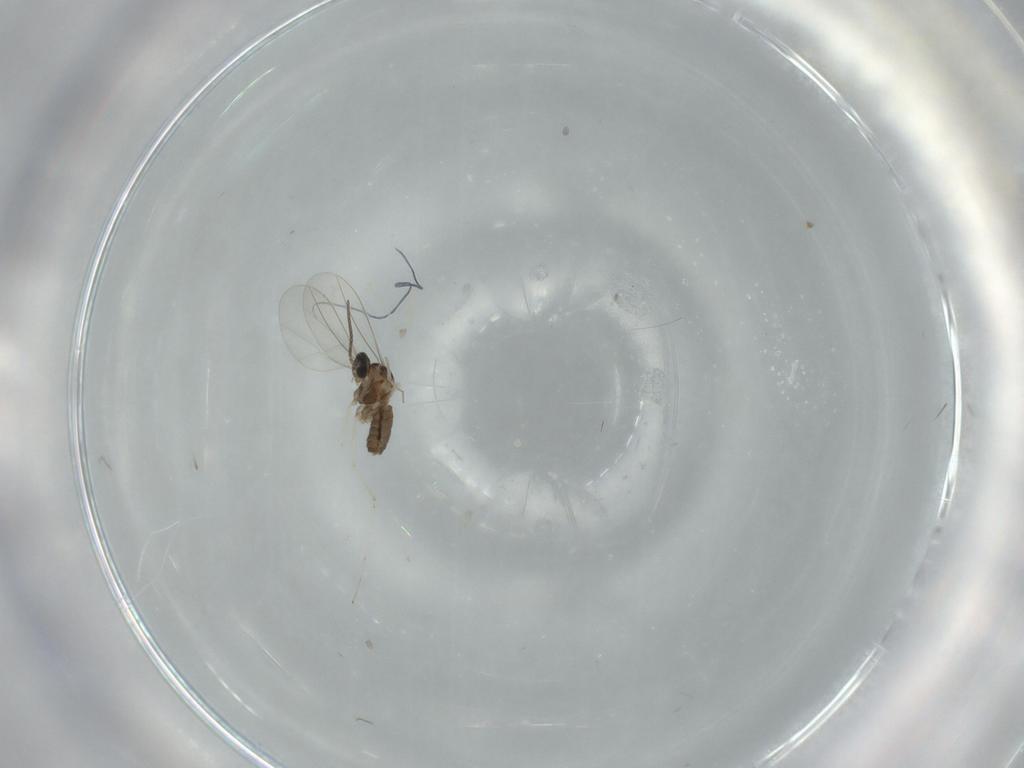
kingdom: Animalia
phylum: Arthropoda
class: Insecta
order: Diptera
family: Cecidomyiidae
